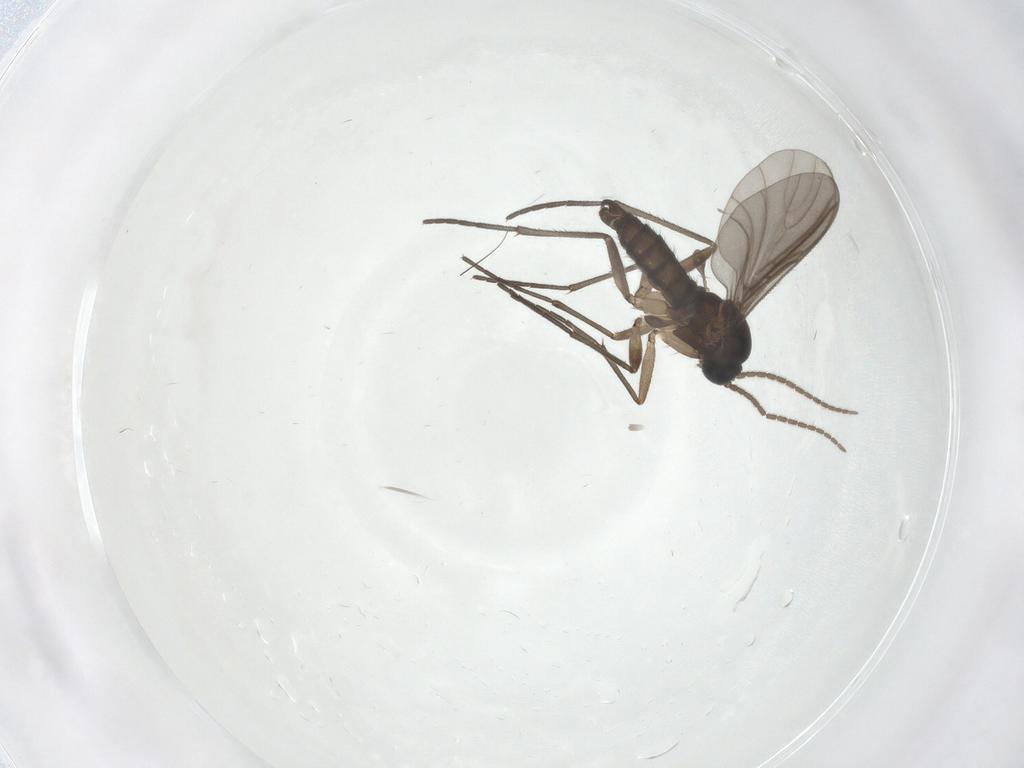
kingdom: Animalia
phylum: Arthropoda
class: Insecta
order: Diptera
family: Sciaridae
